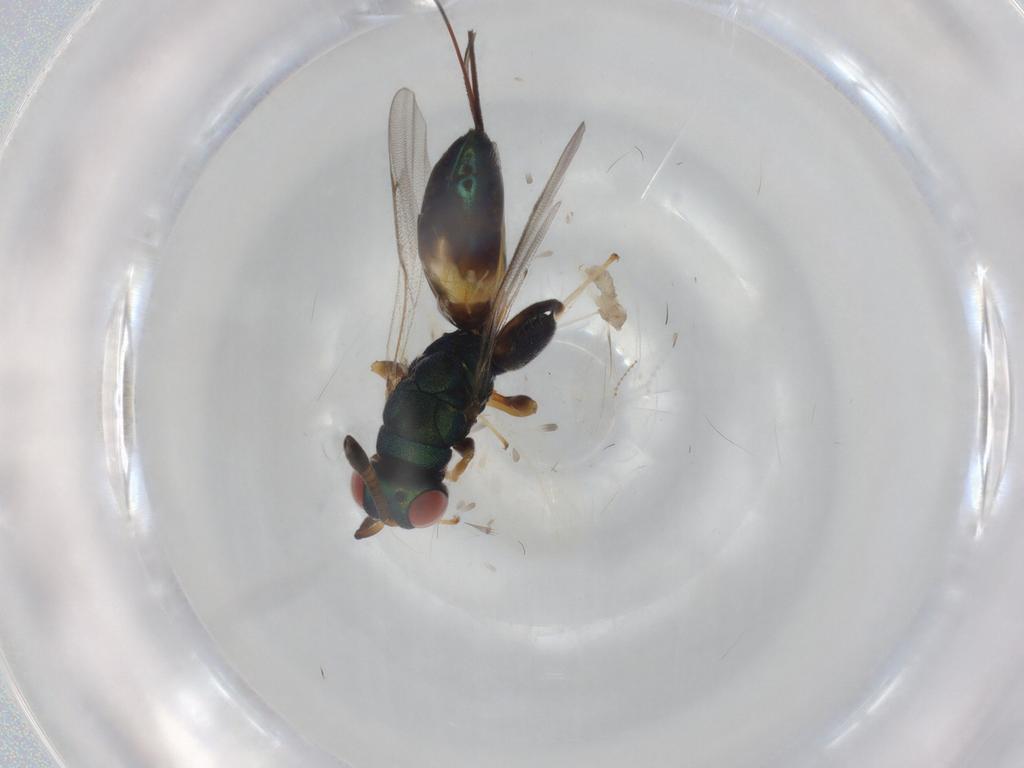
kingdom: Animalia
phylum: Arthropoda
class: Insecta
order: Hymenoptera
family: Torymidae
